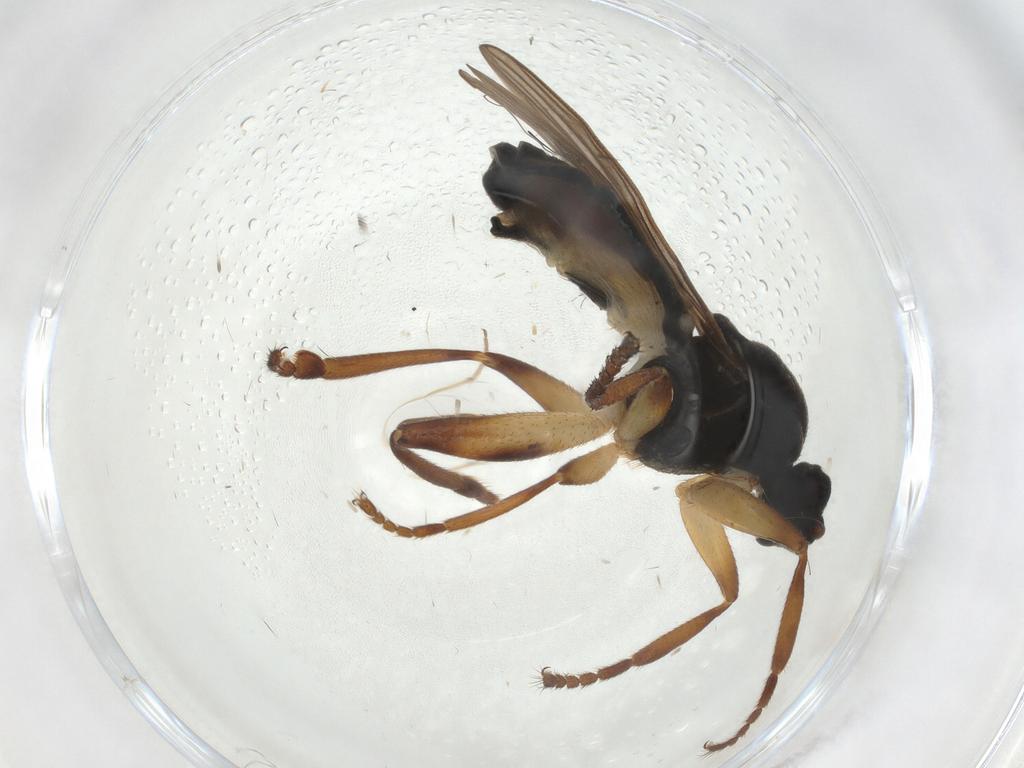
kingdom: Animalia
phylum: Arthropoda
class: Insecta
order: Diptera
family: Sphaeroceridae
